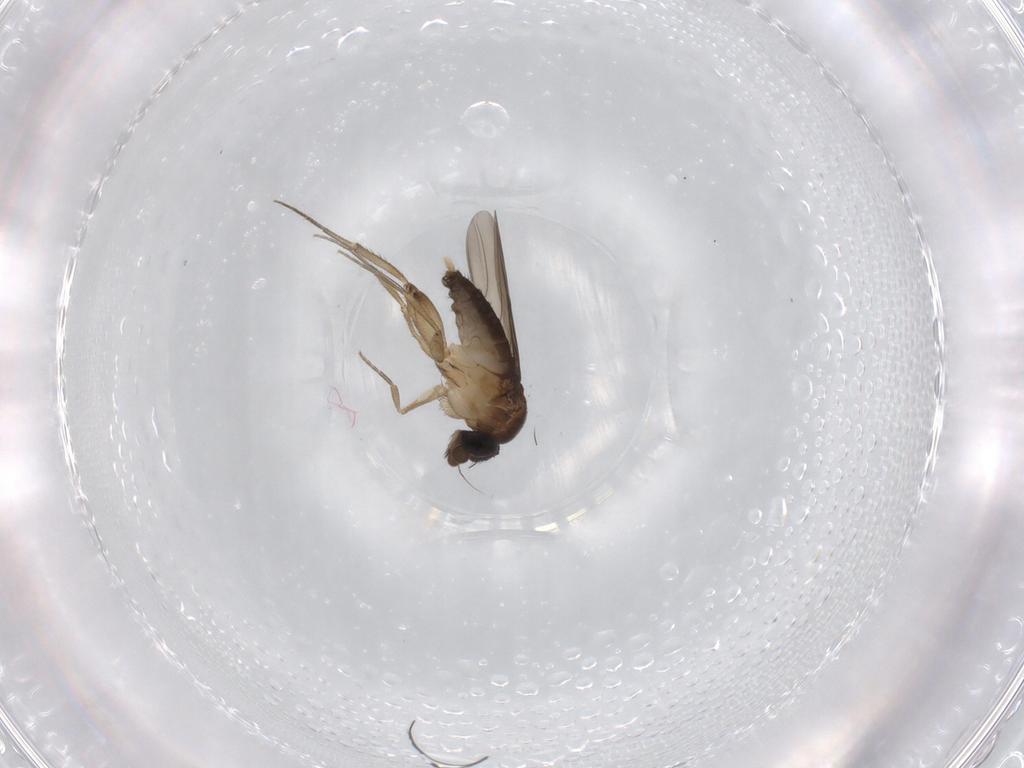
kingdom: Animalia
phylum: Arthropoda
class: Insecta
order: Diptera
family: Phoridae
